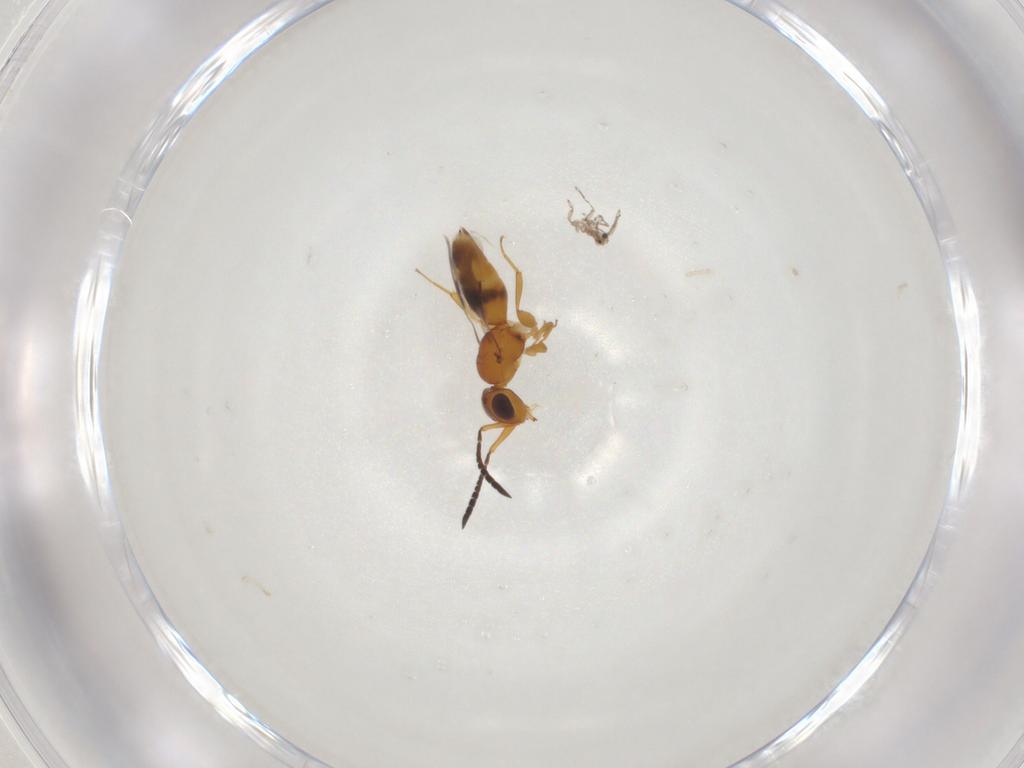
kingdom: Animalia
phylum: Arthropoda
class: Insecta
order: Hymenoptera
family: Ceraphronidae
